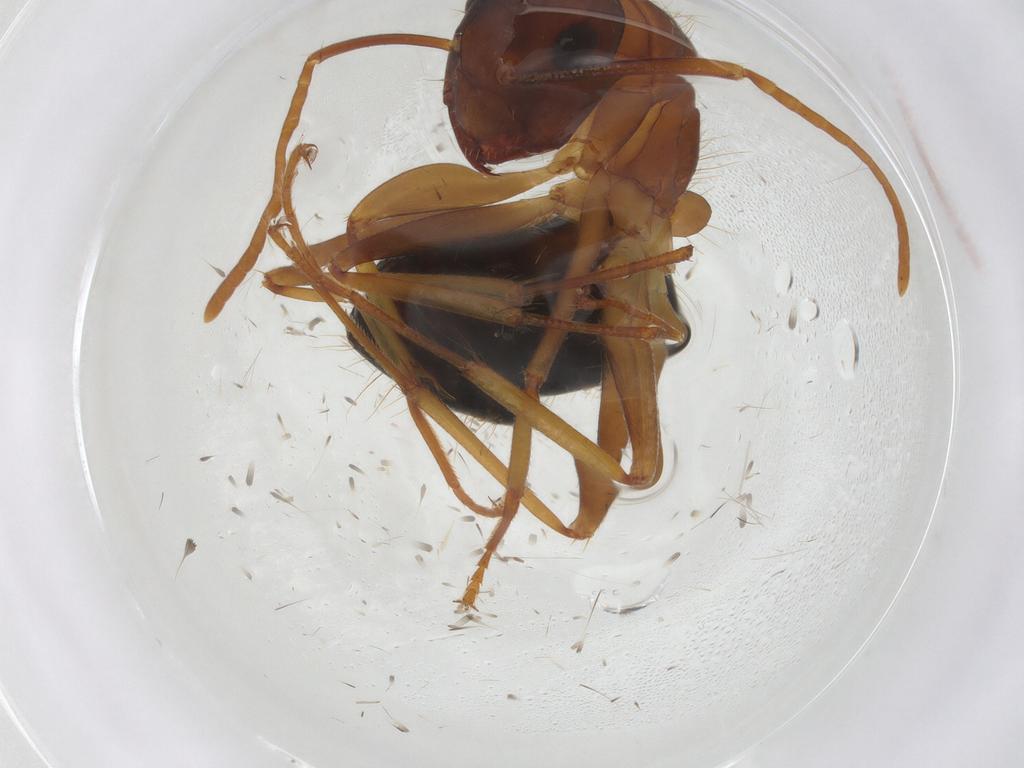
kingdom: Animalia
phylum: Arthropoda
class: Insecta
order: Hymenoptera
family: Formicidae
